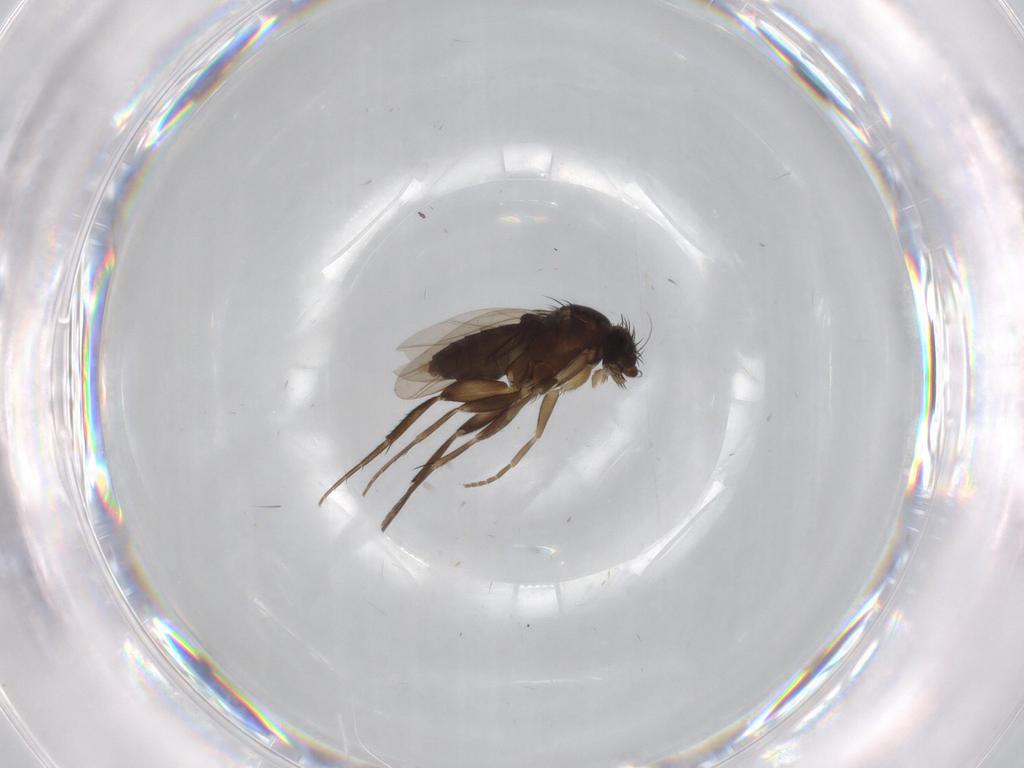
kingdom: Animalia
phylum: Arthropoda
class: Insecta
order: Diptera
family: Phoridae
